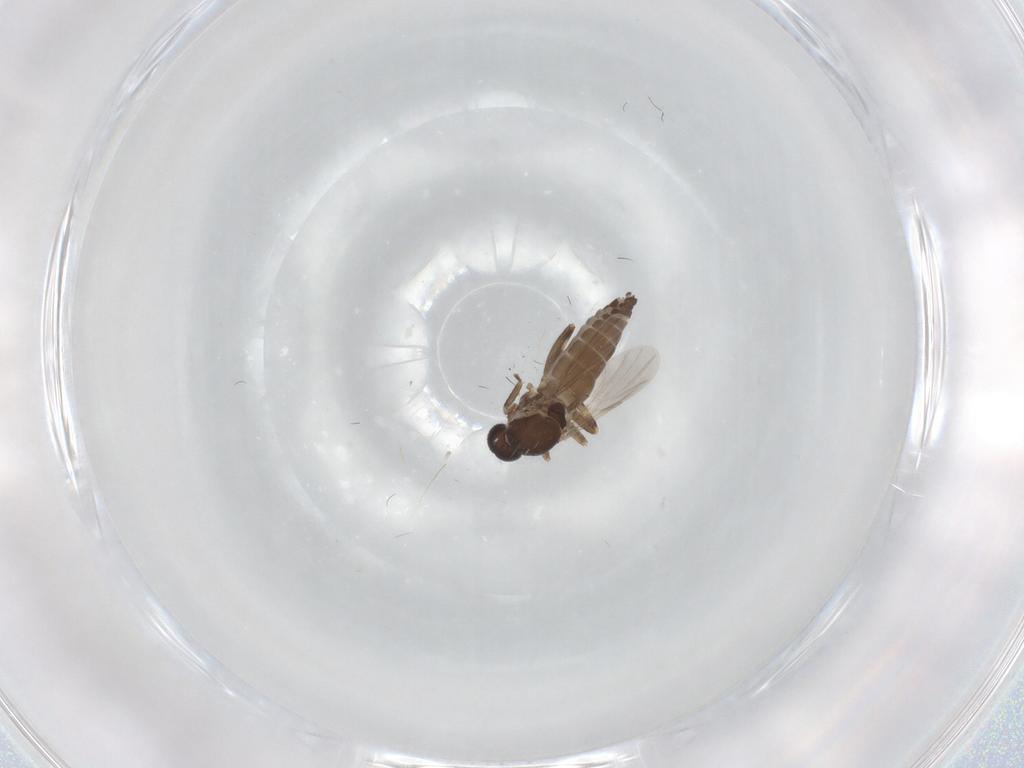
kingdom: Animalia
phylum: Arthropoda
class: Insecta
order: Diptera
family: Ceratopogonidae
